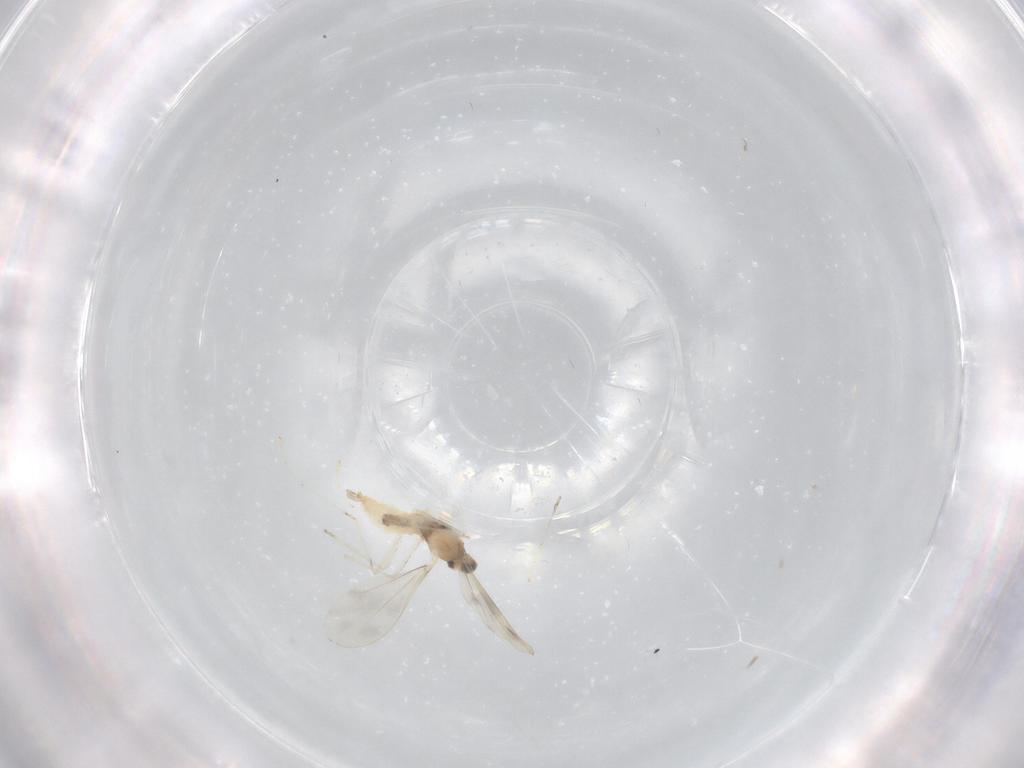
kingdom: Animalia
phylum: Arthropoda
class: Insecta
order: Diptera
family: Cecidomyiidae
